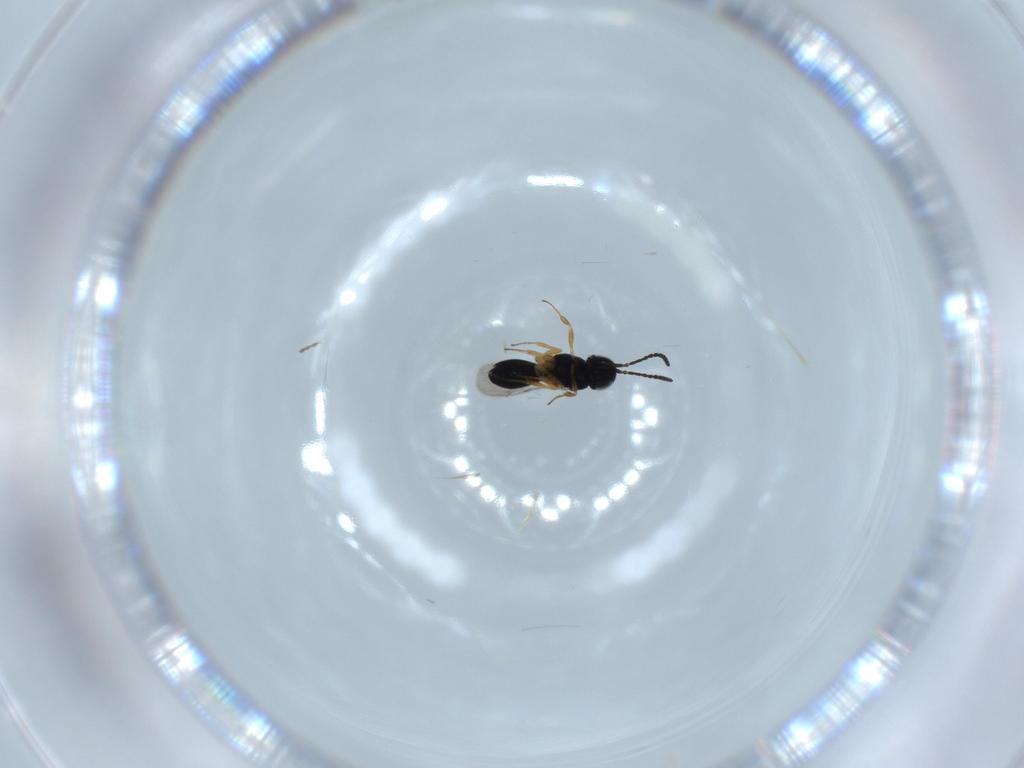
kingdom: Animalia
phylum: Arthropoda
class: Insecta
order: Hymenoptera
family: Scelionidae
